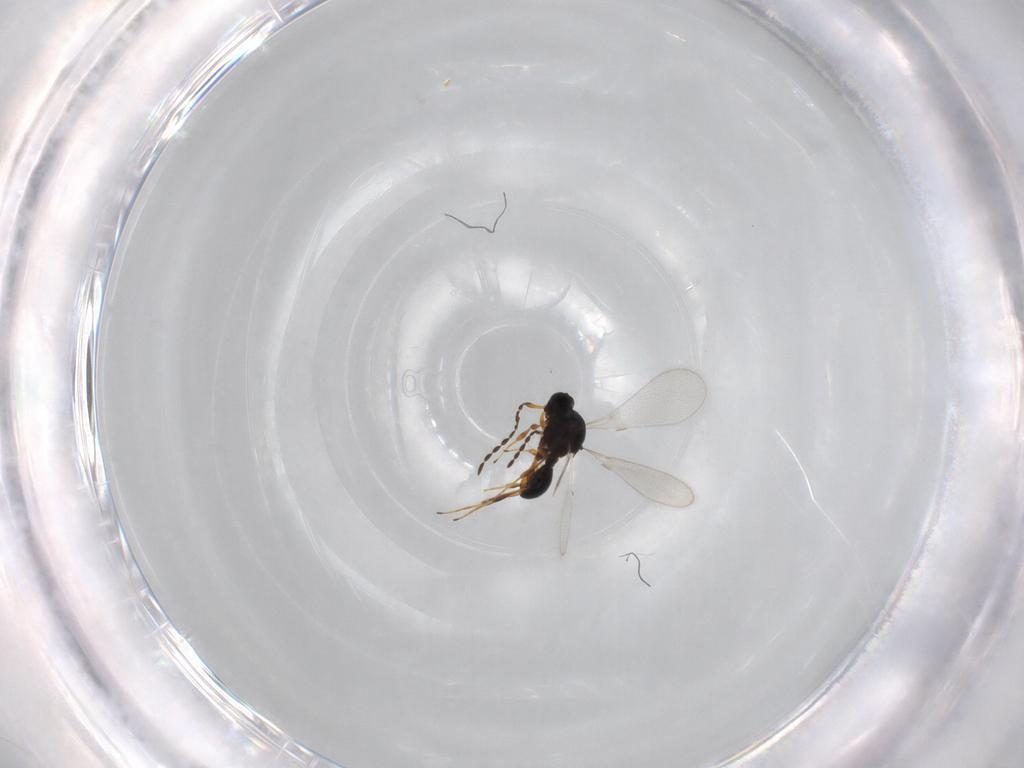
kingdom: Animalia
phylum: Arthropoda
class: Insecta
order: Hymenoptera
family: Platygastridae
